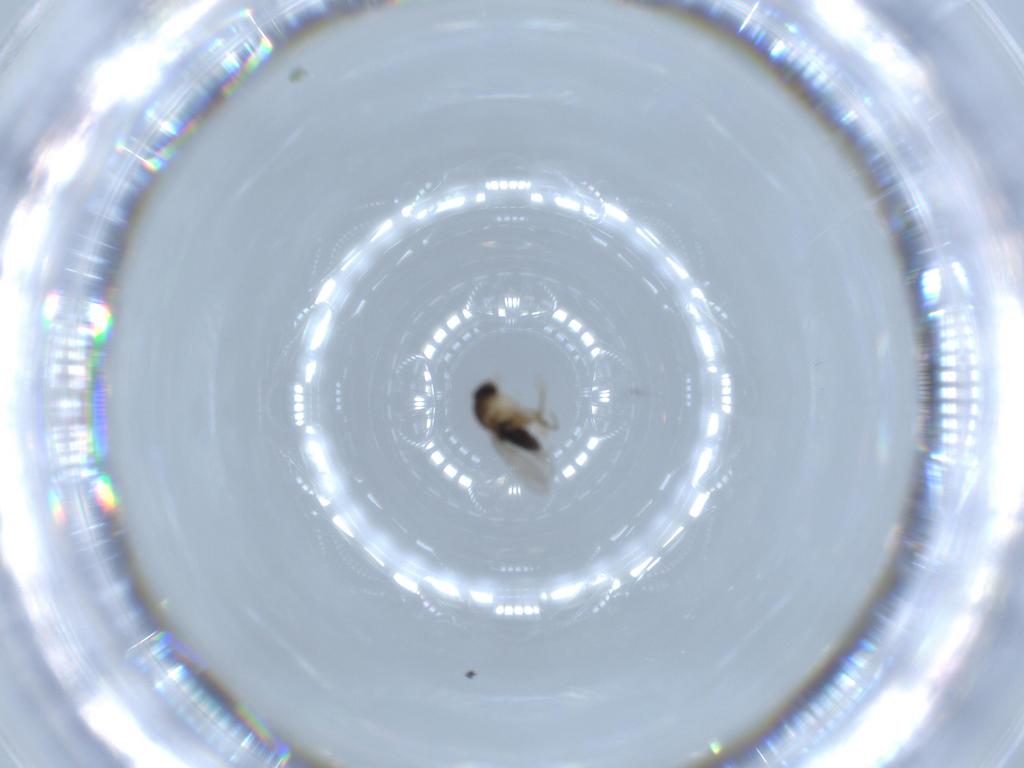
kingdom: Animalia
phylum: Arthropoda
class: Insecta
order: Diptera
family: Phoridae
